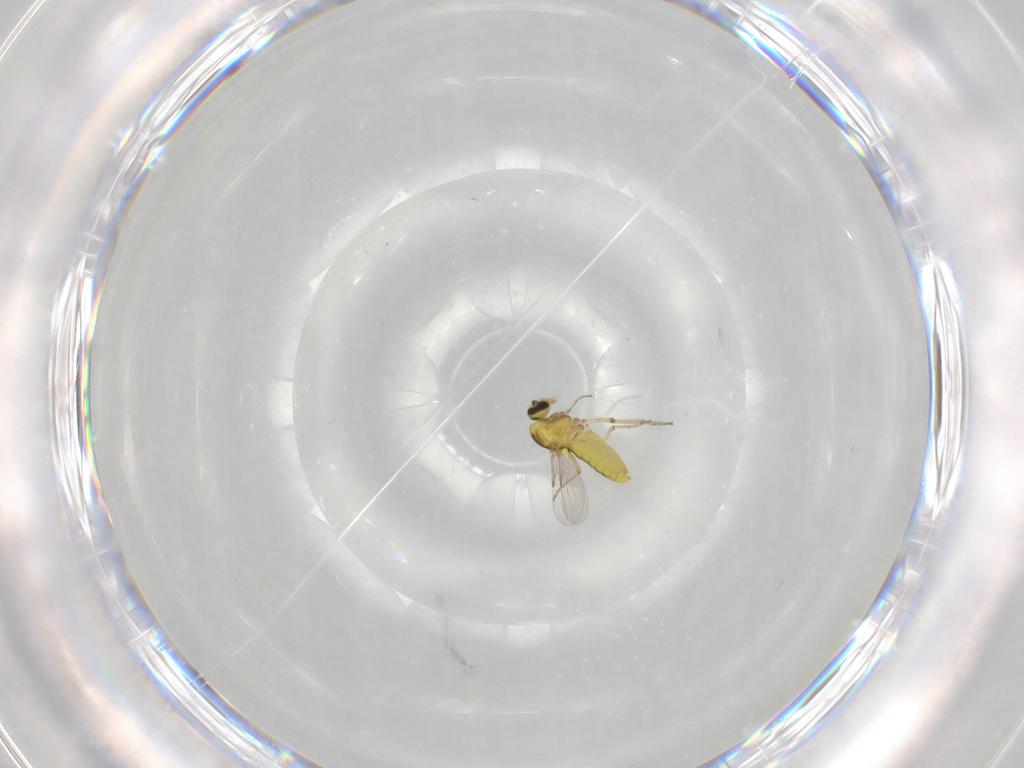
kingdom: Animalia
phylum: Arthropoda
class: Insecta
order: Diptera
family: Ceratopogonidae
